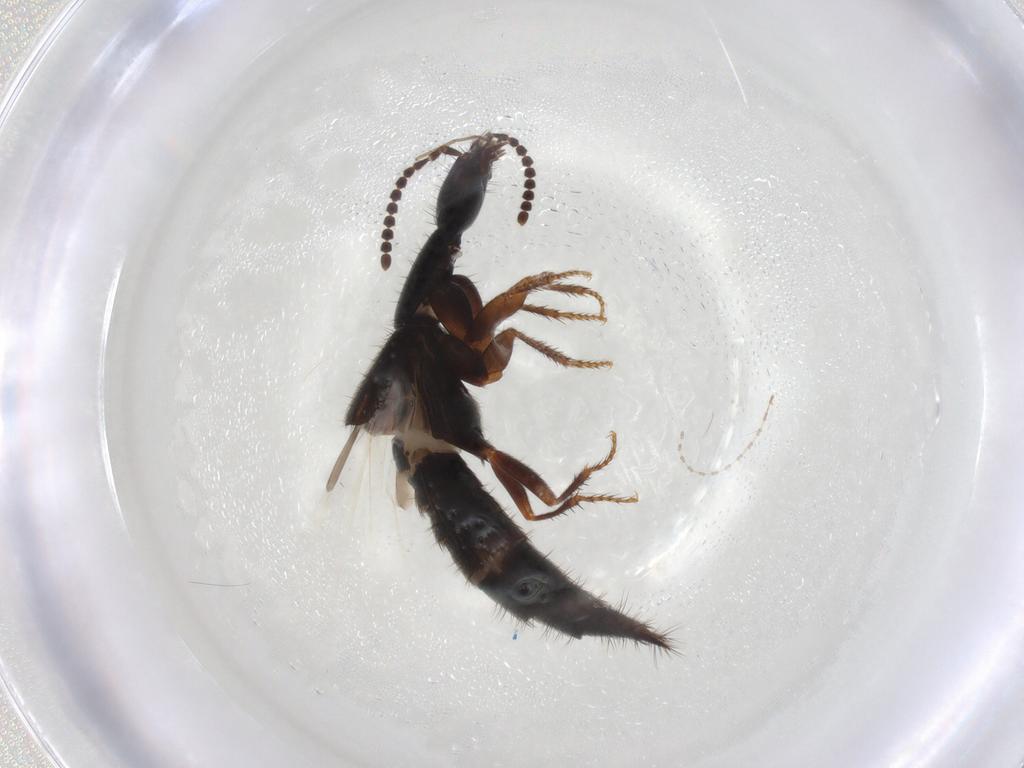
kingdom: Animalia
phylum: Arthropoda
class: Insecta
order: Coleoptera
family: Staphylinidae
